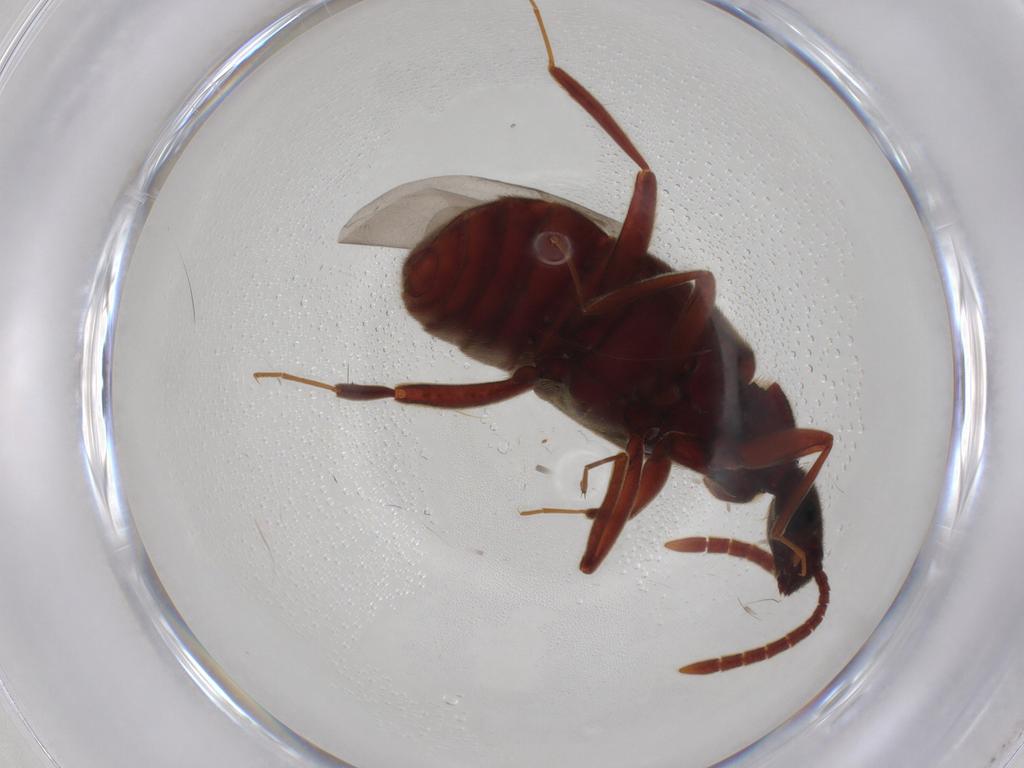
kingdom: Animalia
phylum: Arthropoda
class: Insecta
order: Coleoptera
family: Staphylinidae
